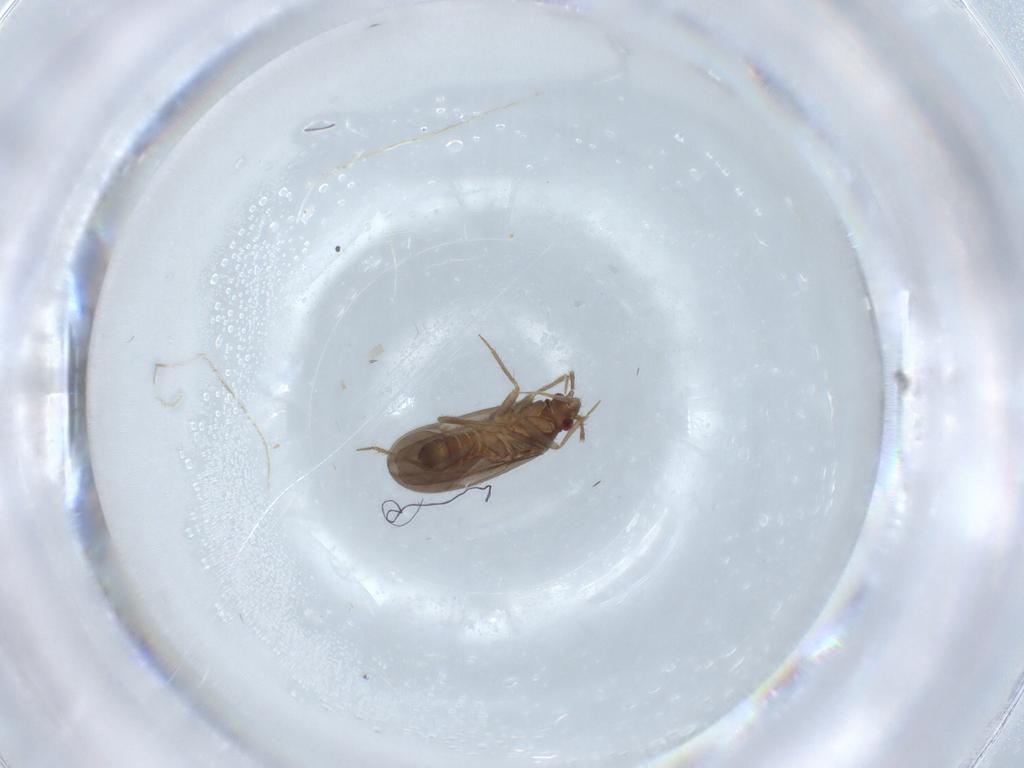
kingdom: Animalia
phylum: Arthropoda
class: Insecta
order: Hemiptera
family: Ceratocombidae
